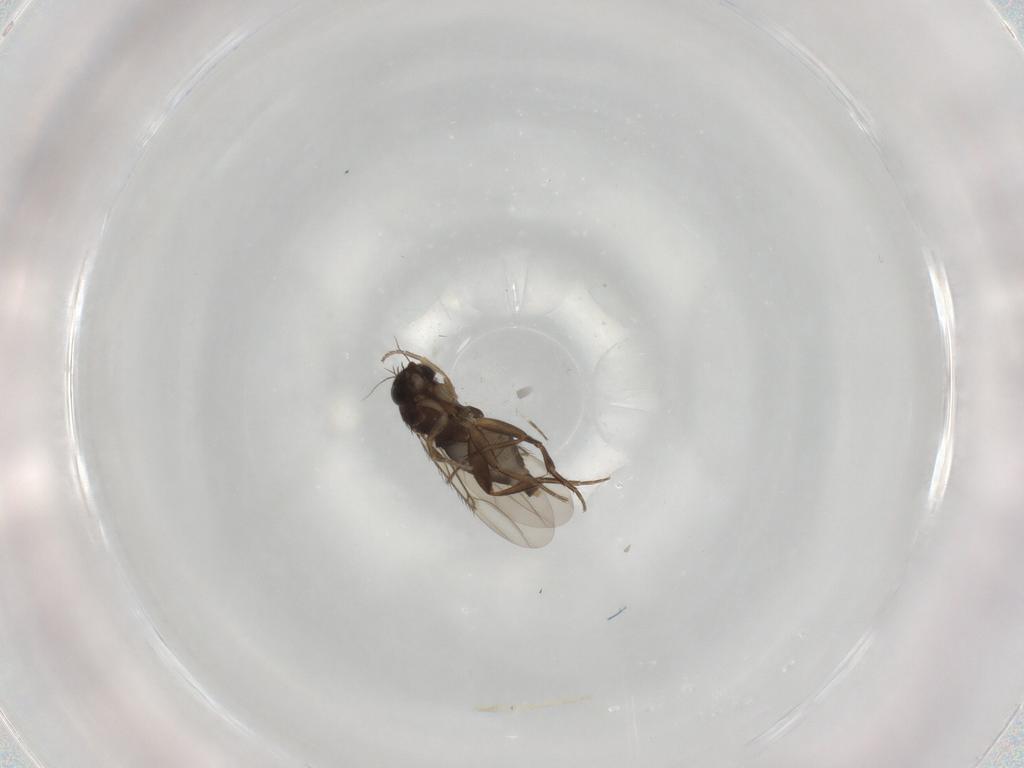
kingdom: Animalia
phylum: Arthropoda
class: Insecta
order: Diptera
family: Phoridae
